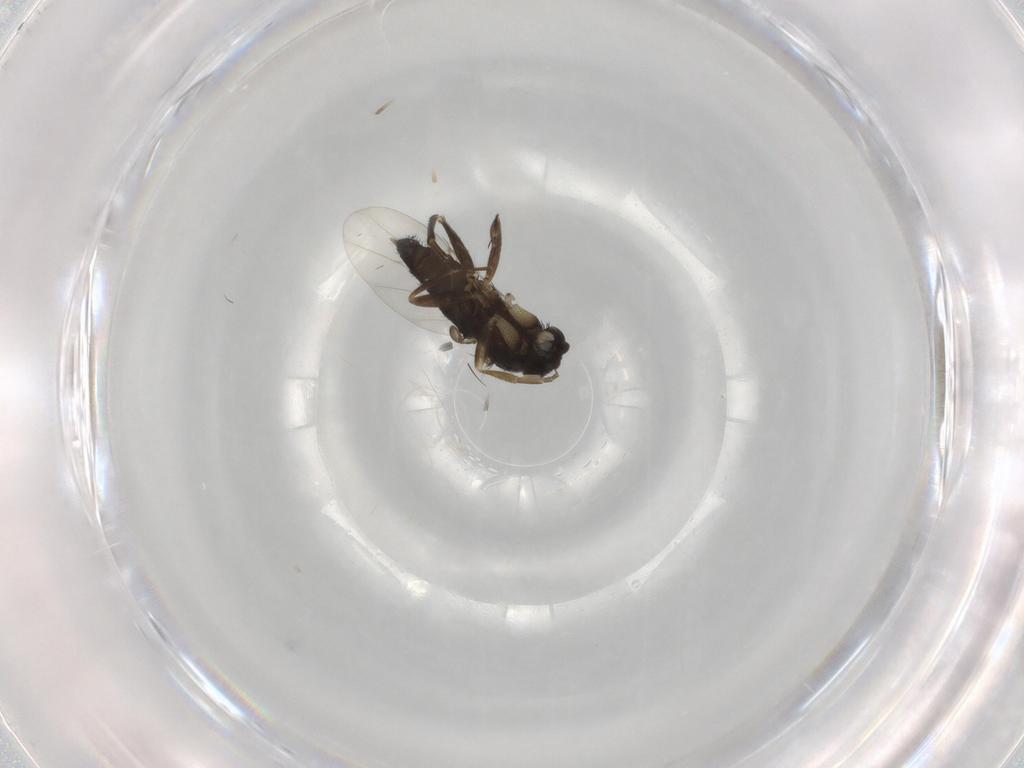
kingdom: Animalia
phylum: Arthropoda
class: Insecta
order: Diptera
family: Phoridae
